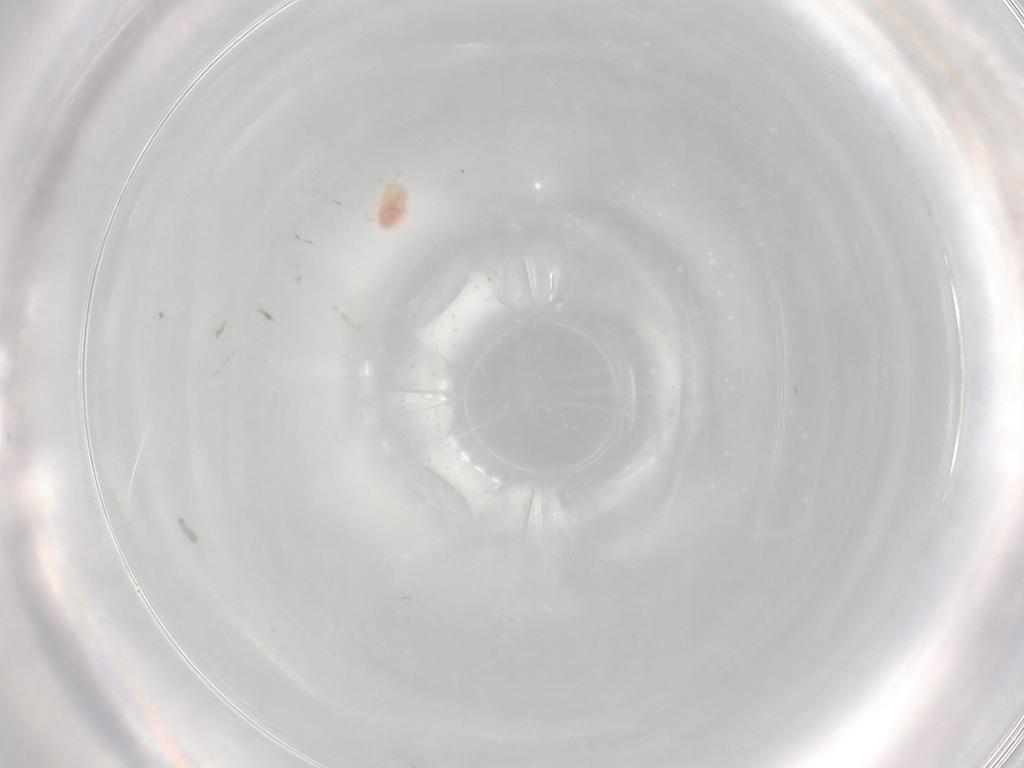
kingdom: Animalia
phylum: Arthropoda
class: Arachnida
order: Trombidiformes
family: Microtrombidiidae
